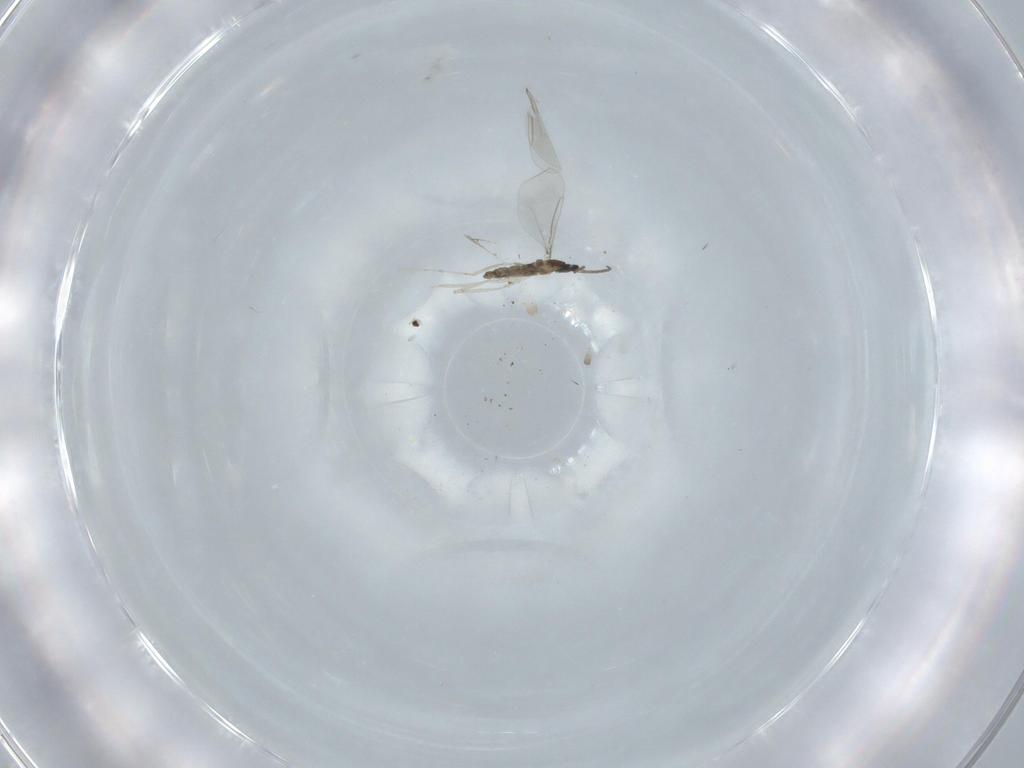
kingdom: Animalia
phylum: Arthropoda
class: Insecta
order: Diptera
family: Cecidomyiidae
